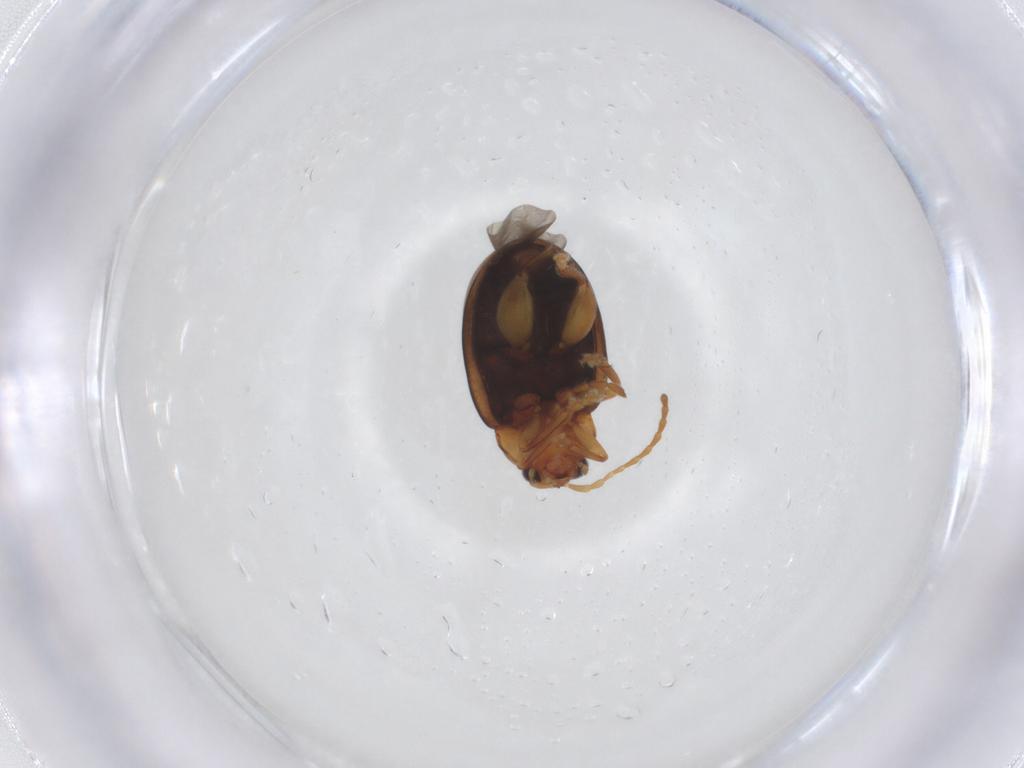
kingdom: Animalia
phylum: Arthropoda
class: Insecta
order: Coleoptera
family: Chrysomelidae
